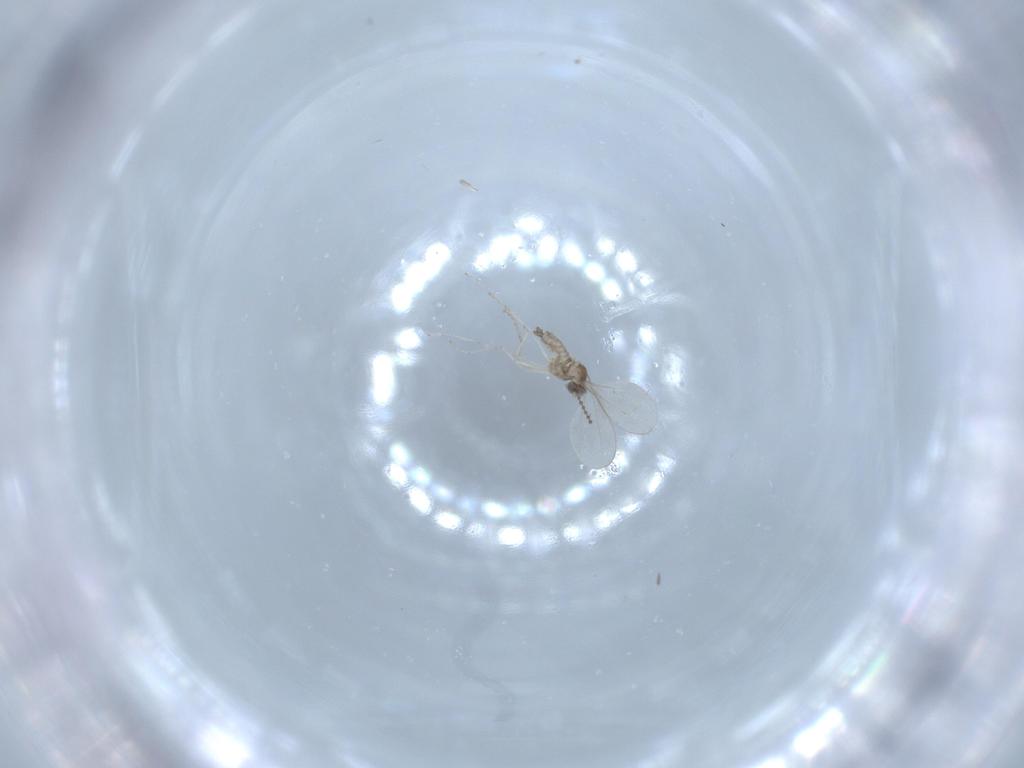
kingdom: Animalia
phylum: Arthropoda
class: Insecta
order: Diptera
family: Cecidomyiidae
